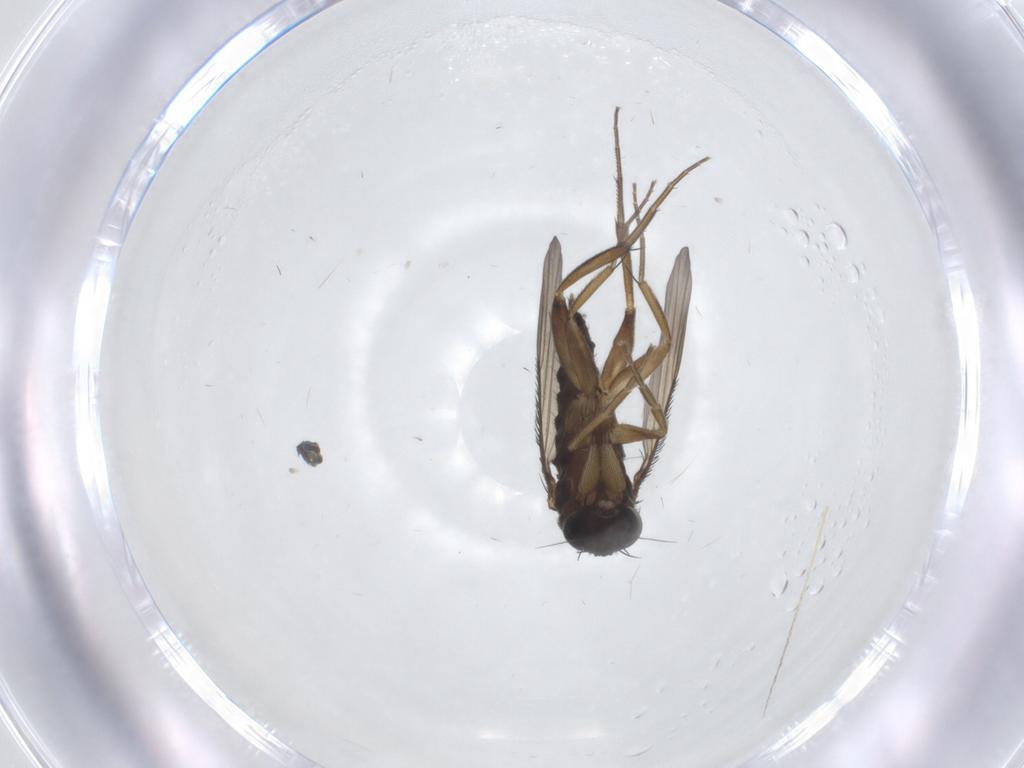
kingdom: Animalia
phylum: Arthropoda
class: Insecta
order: Diptera
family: Phoridae
